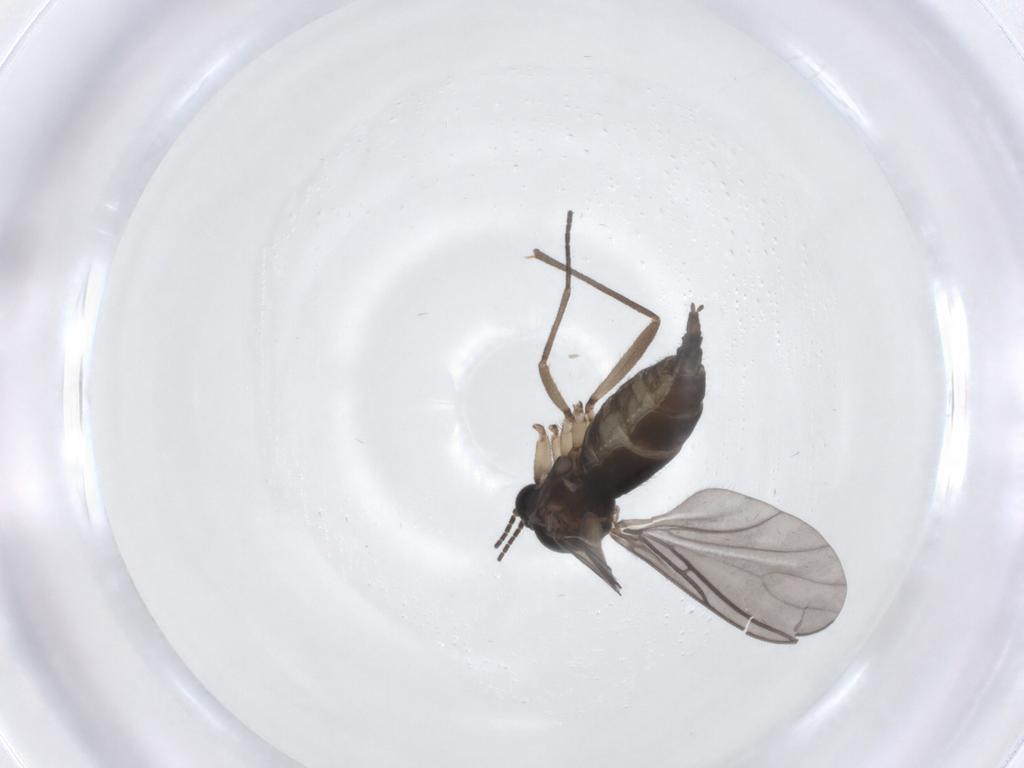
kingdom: Animalia
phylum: Arthropoda
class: Insecta
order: Diptera
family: Sciaridae
